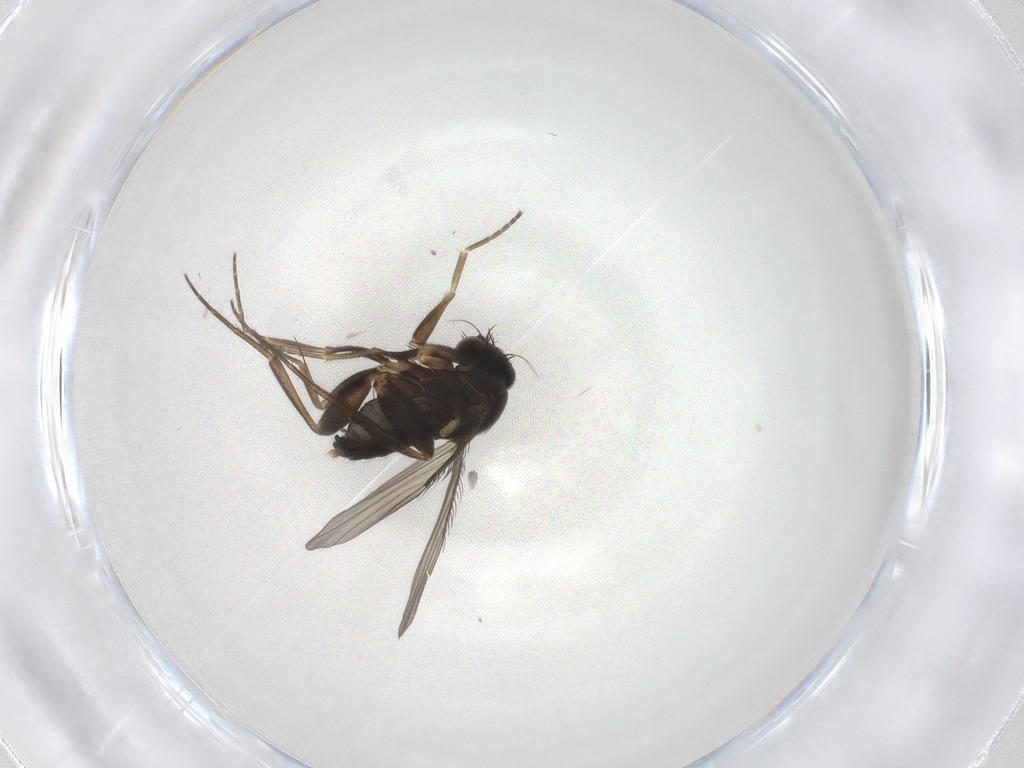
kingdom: Animalia
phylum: Arthropoda
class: Insecta
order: Diptera
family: Phoridae
